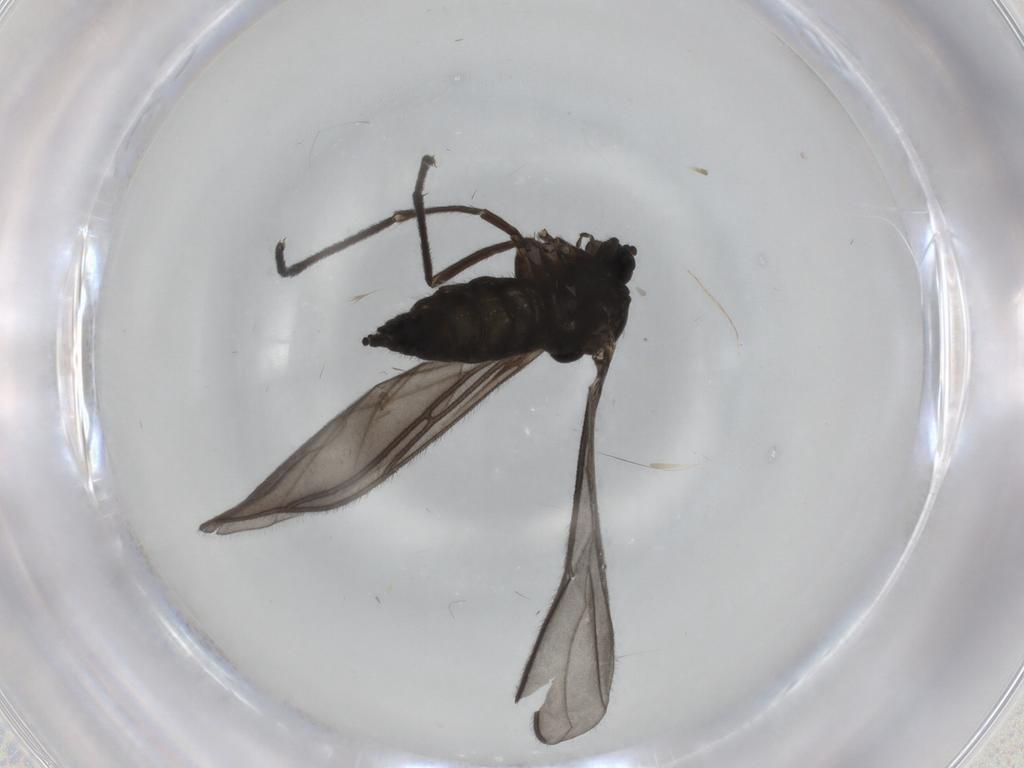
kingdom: Animalia
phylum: Arthropoda
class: Insecta
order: Diptera
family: Sciaridae
